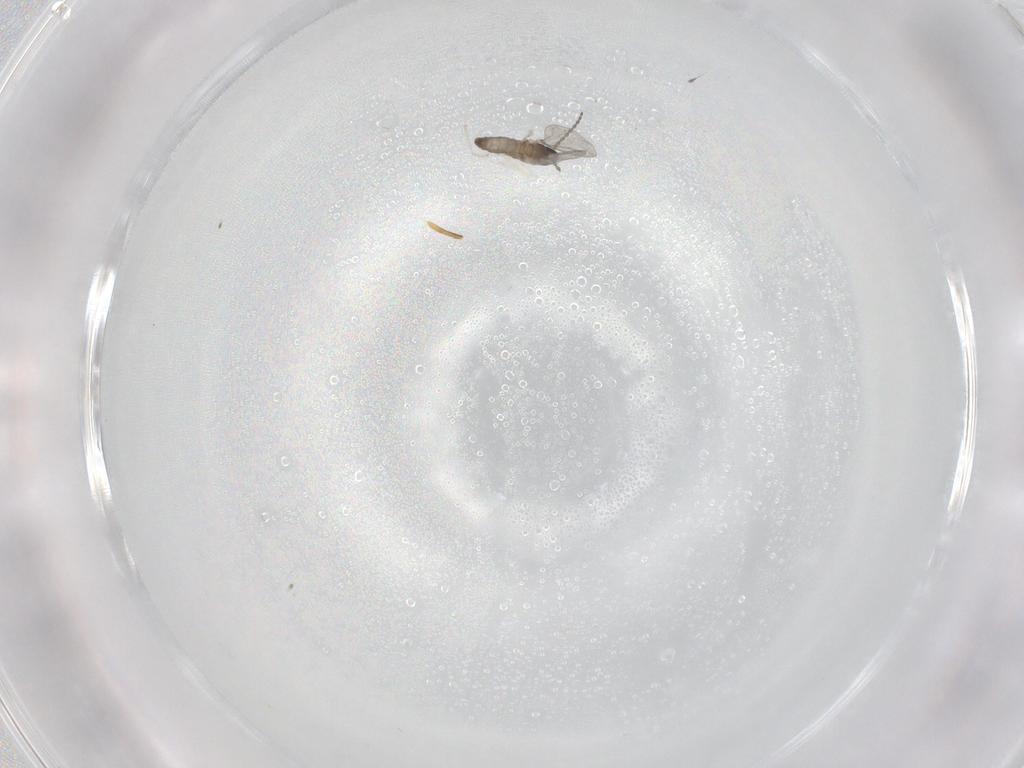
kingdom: Animalia
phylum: Arthropoda
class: Insecta
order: Diptera
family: Cecidomyiidae
